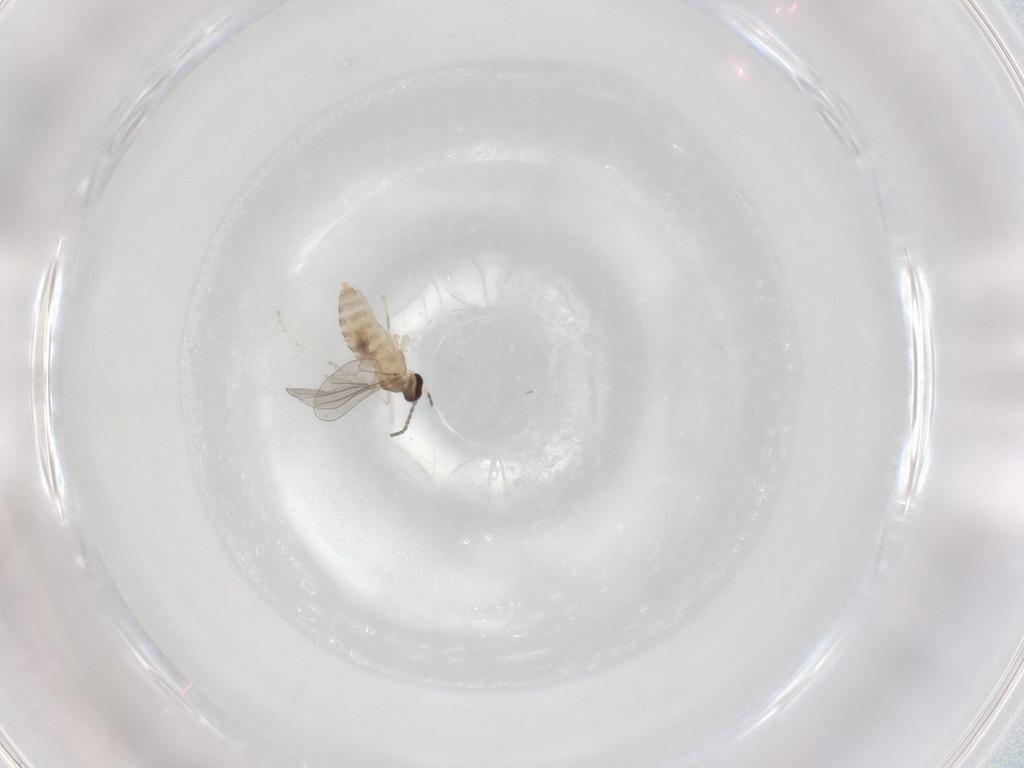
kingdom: Animalia
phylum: Arthropoda
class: Insecta
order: Diptera
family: Cecidomyiidae
